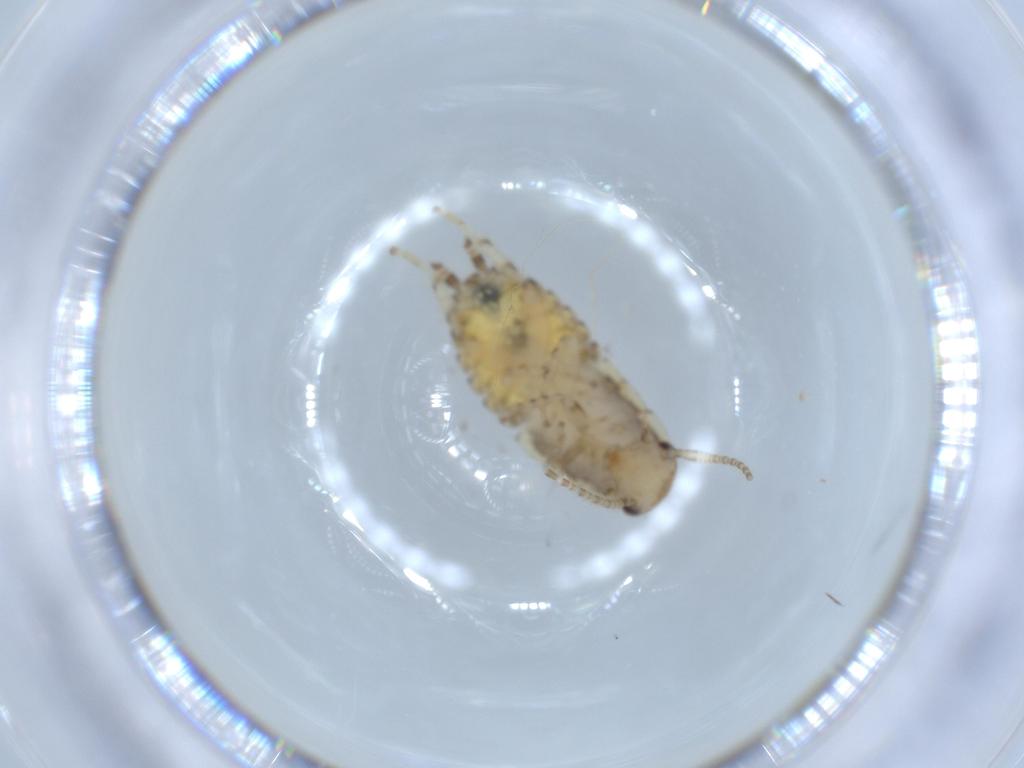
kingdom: Animalia
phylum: Arthropoda
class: Insecta
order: Blattodea
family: Ectobiidae
